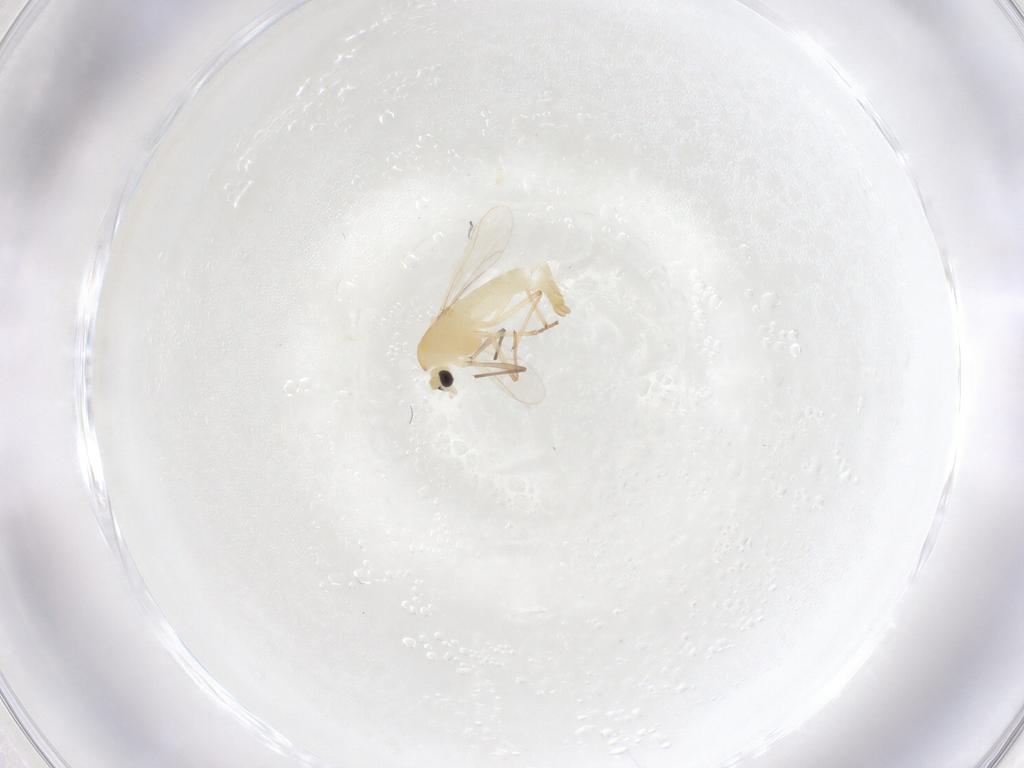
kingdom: Animalia
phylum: Arthropoda
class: Insecta
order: Diptera
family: Chironomidae
